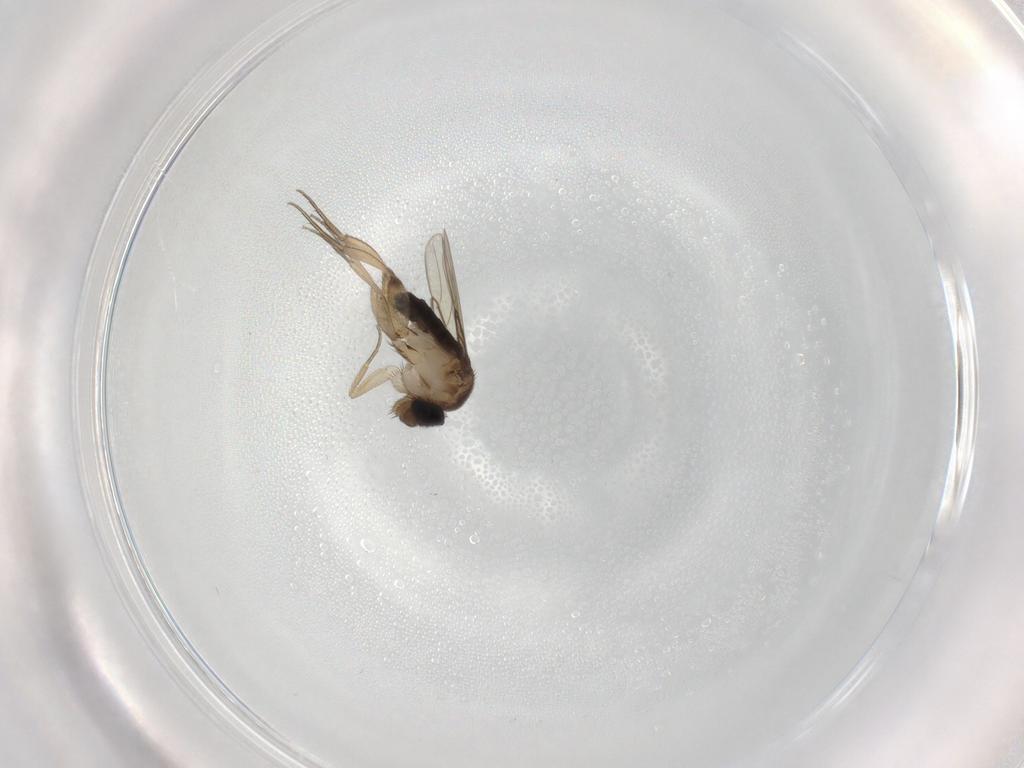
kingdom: Animalia
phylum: Arthropoda
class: Insecta
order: Diptera
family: Phoridae
